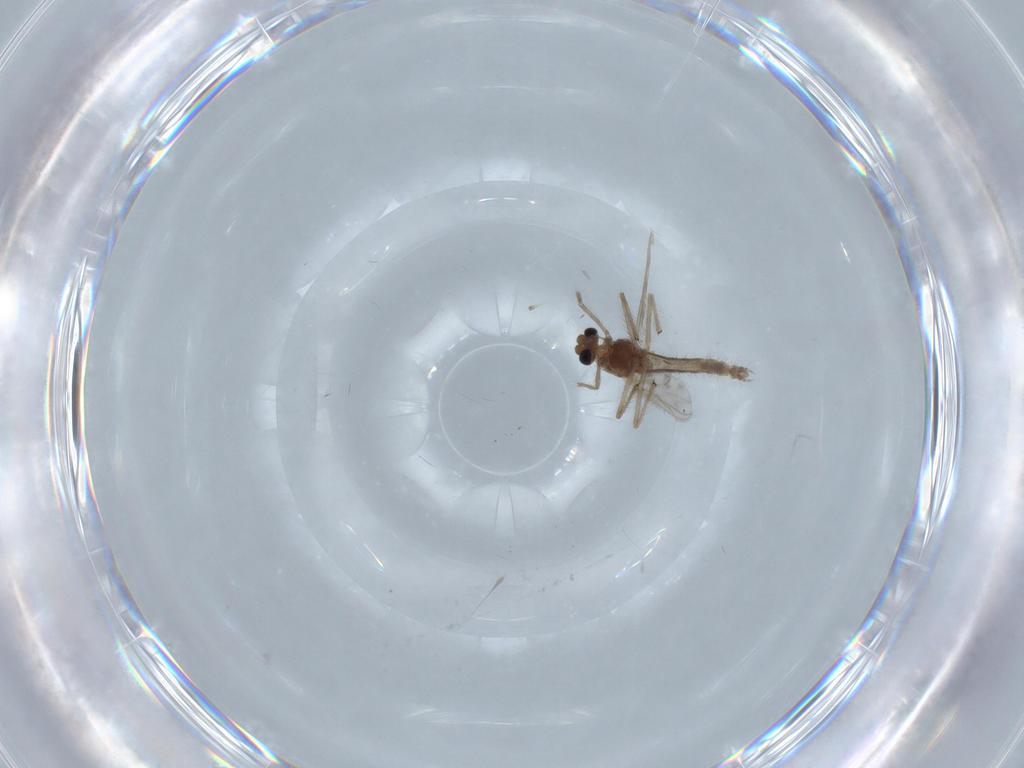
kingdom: Animalia
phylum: Arthropoda
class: Insecta
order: Diptera
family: Chironomidae
